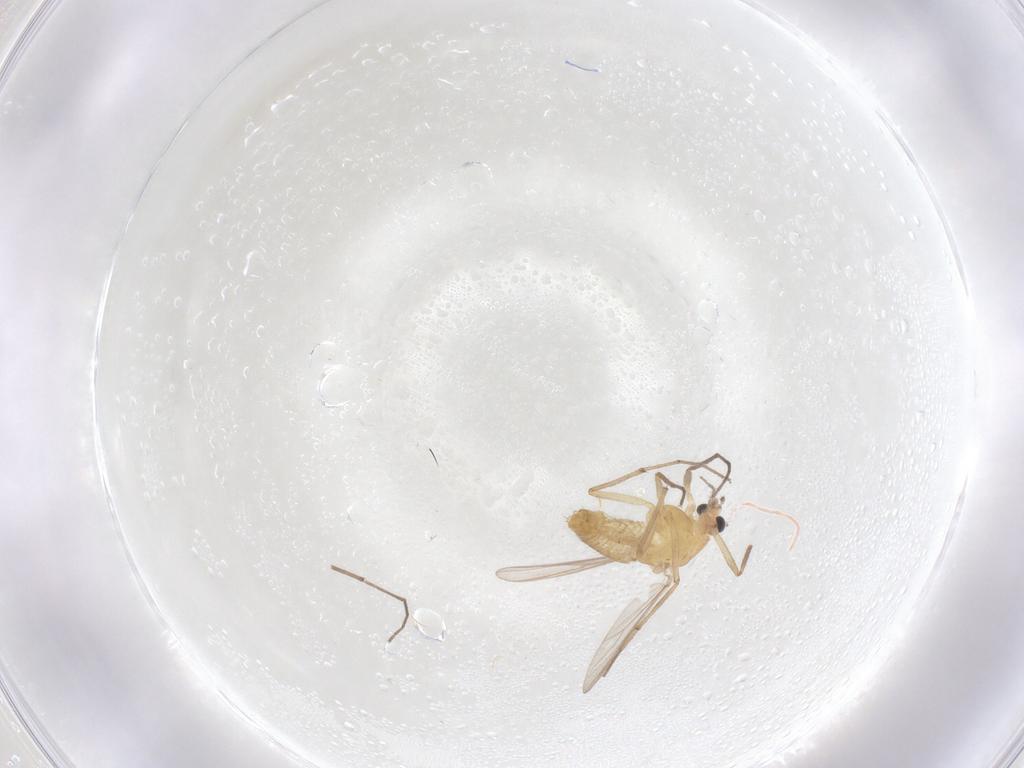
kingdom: Animalia
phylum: Arthropoda
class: Insecta
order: Diptera
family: Chironomidae
